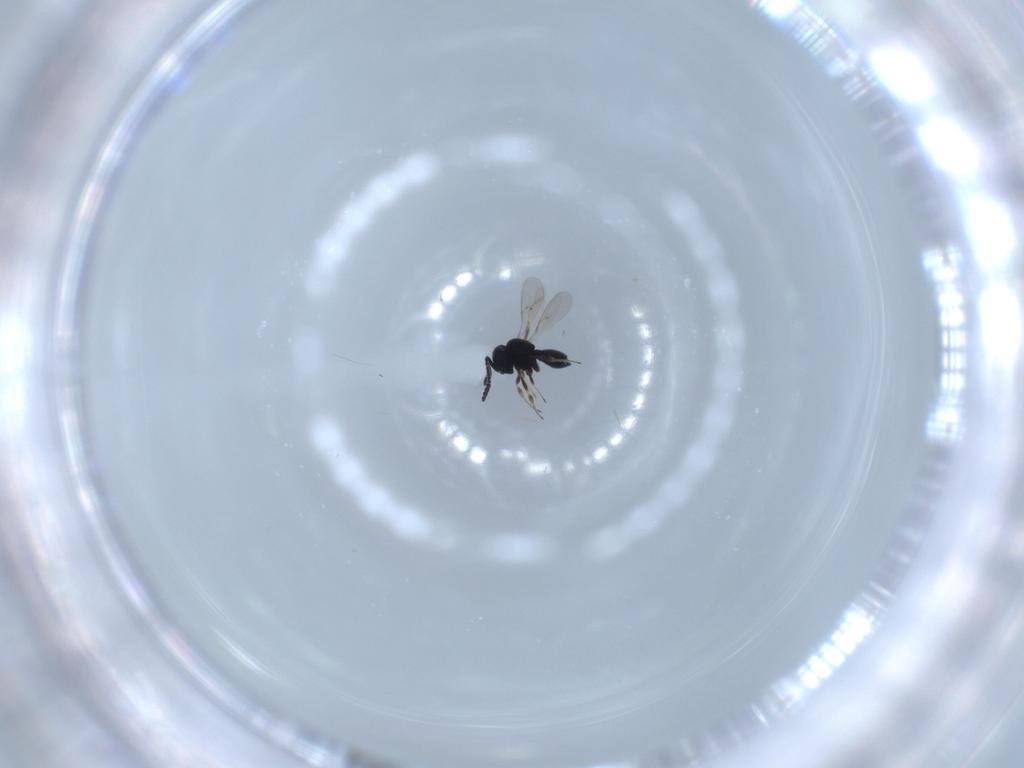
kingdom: Animalia
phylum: Arthropoda
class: Insecta
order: Hymenoptera
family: Scelionidae
